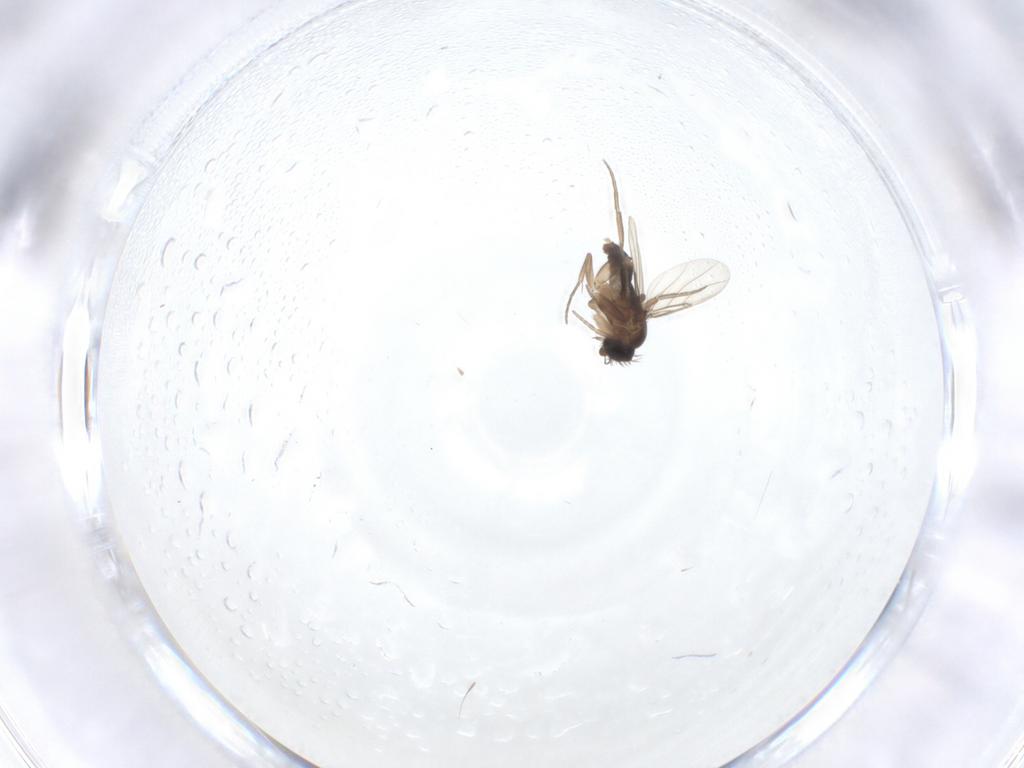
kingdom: Animalia
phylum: Arthropoda
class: Insecta
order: Diptera
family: Phoridae
